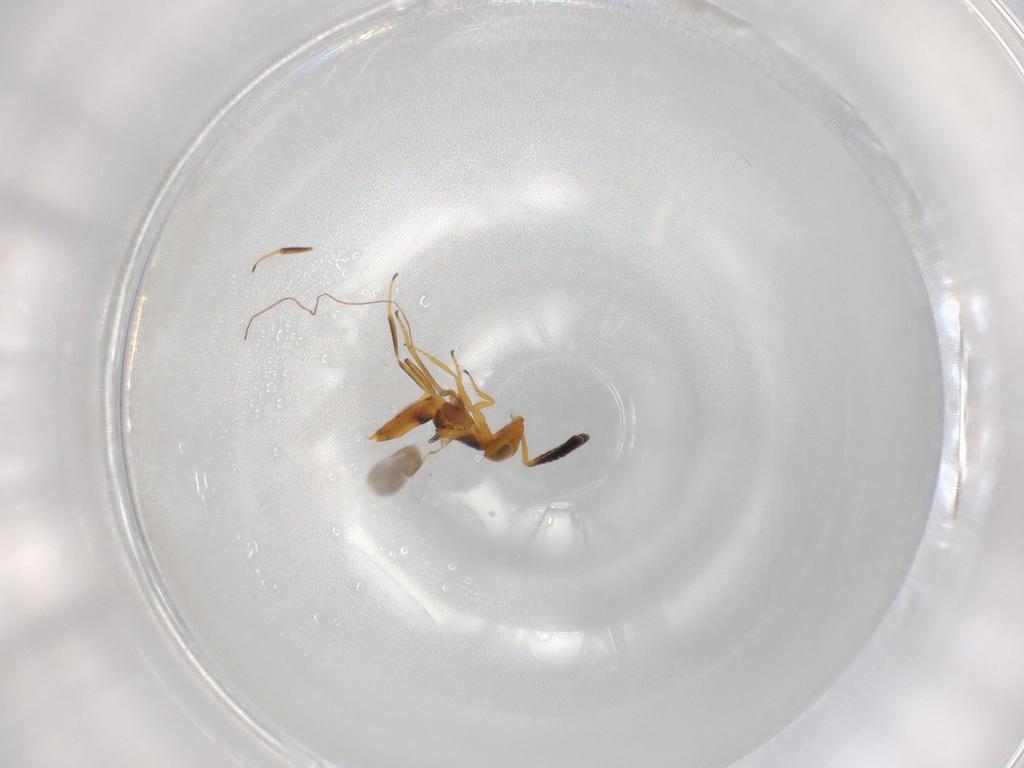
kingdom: Animalia
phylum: Arthropoda
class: Insecta
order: Hymenoptera
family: Encyrtidae
